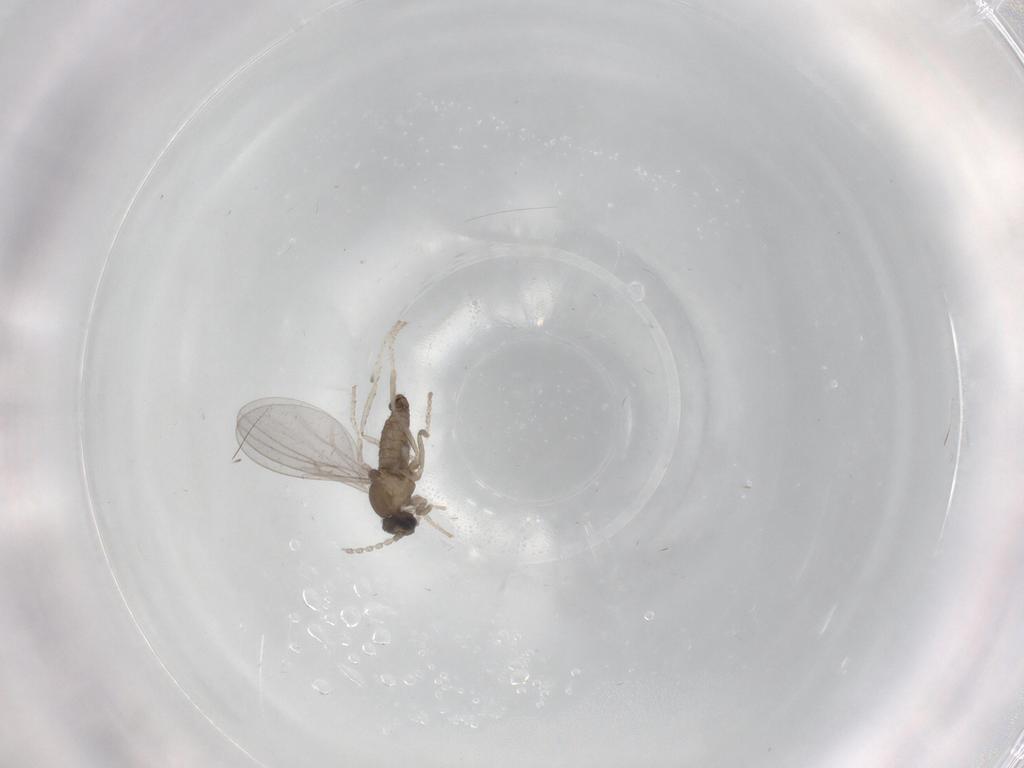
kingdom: Animalia
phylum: Arthropoda
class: Insecta
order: Diptera
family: Cecidomyiidae
